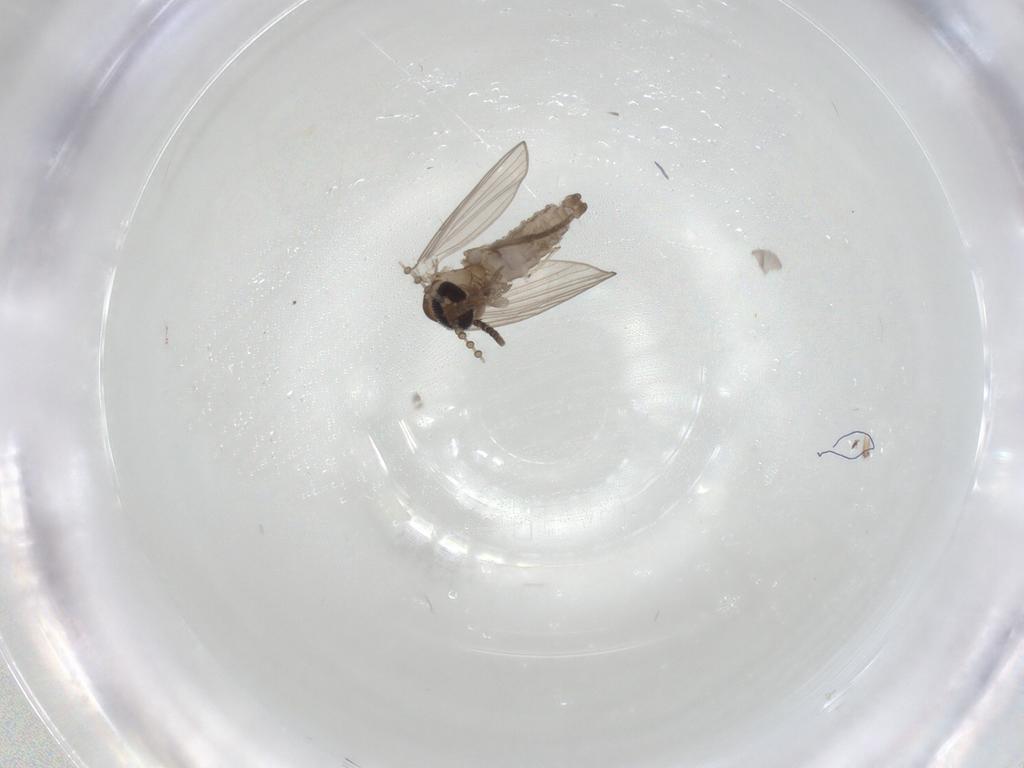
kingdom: Animalia
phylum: Arthropoda
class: Insecta
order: Diptera
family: Psychodidae
